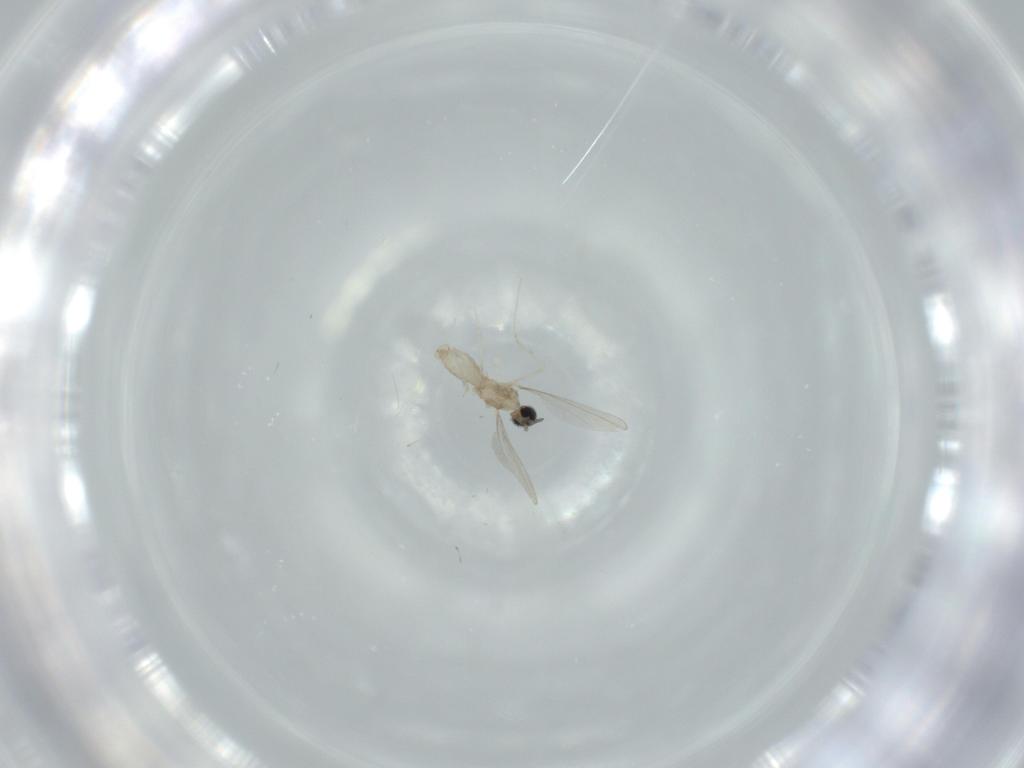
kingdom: Animalia
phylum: Arthropoda
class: Insecta
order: Diptera
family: Cecidomyiidae
